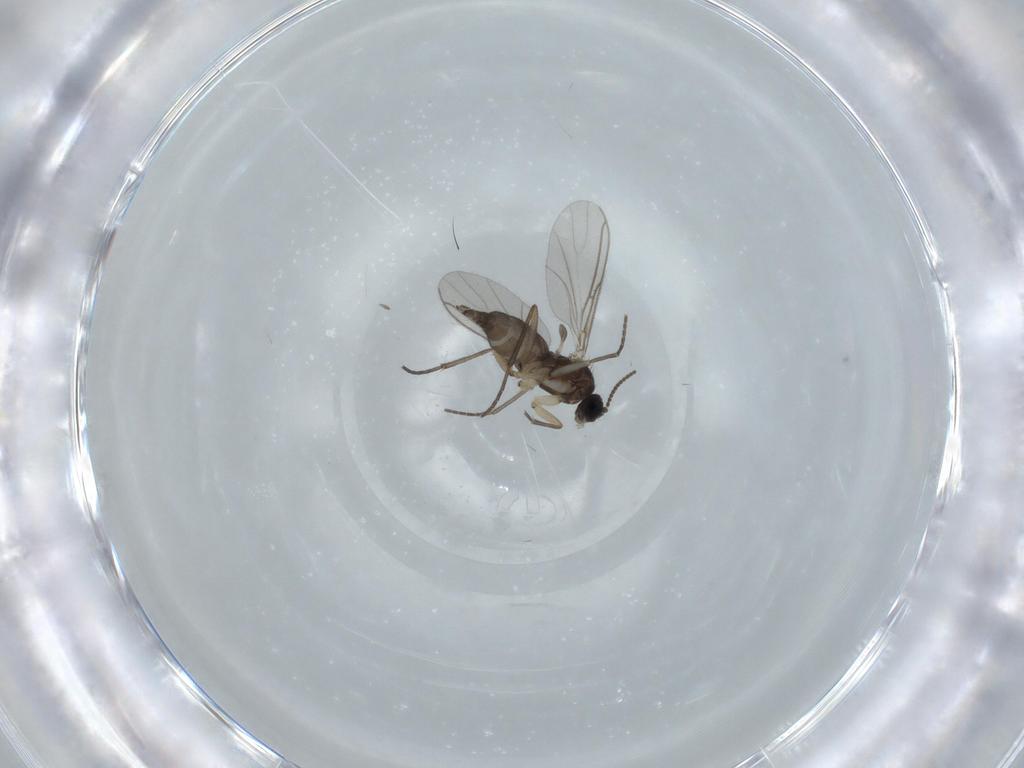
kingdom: Animalia
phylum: Arthropoda
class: Insecta
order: Diptera
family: Sciaridae
